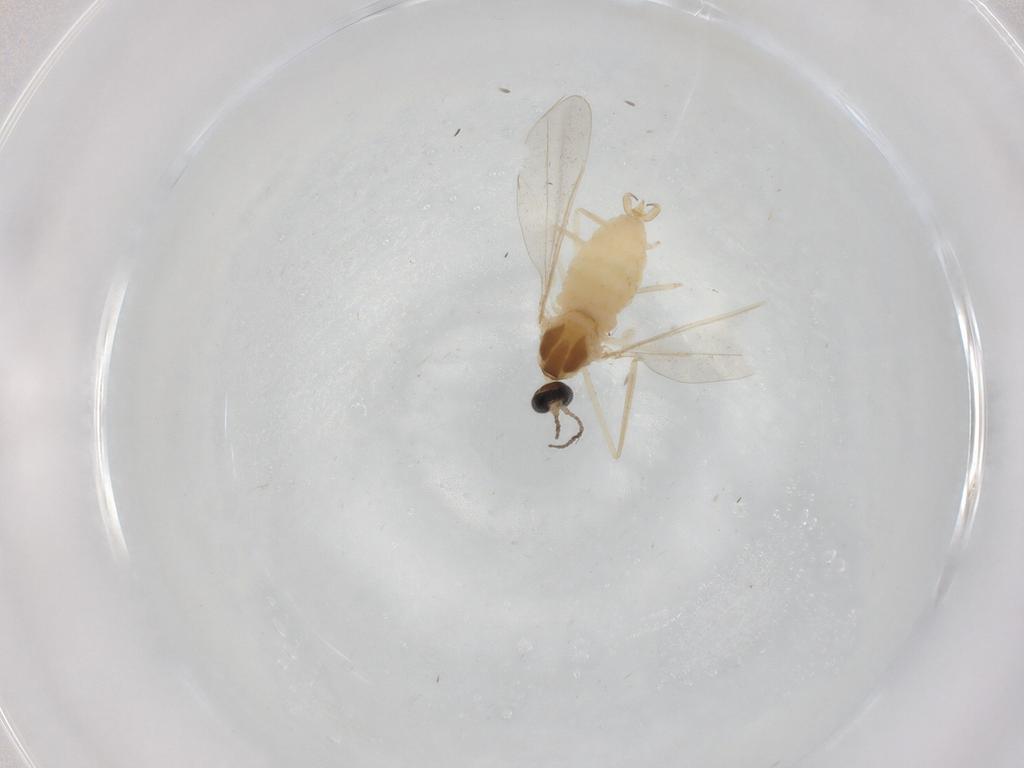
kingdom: Animalia
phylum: Arthropoda
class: Insecta
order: Diptera
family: Cecidomyiidae
